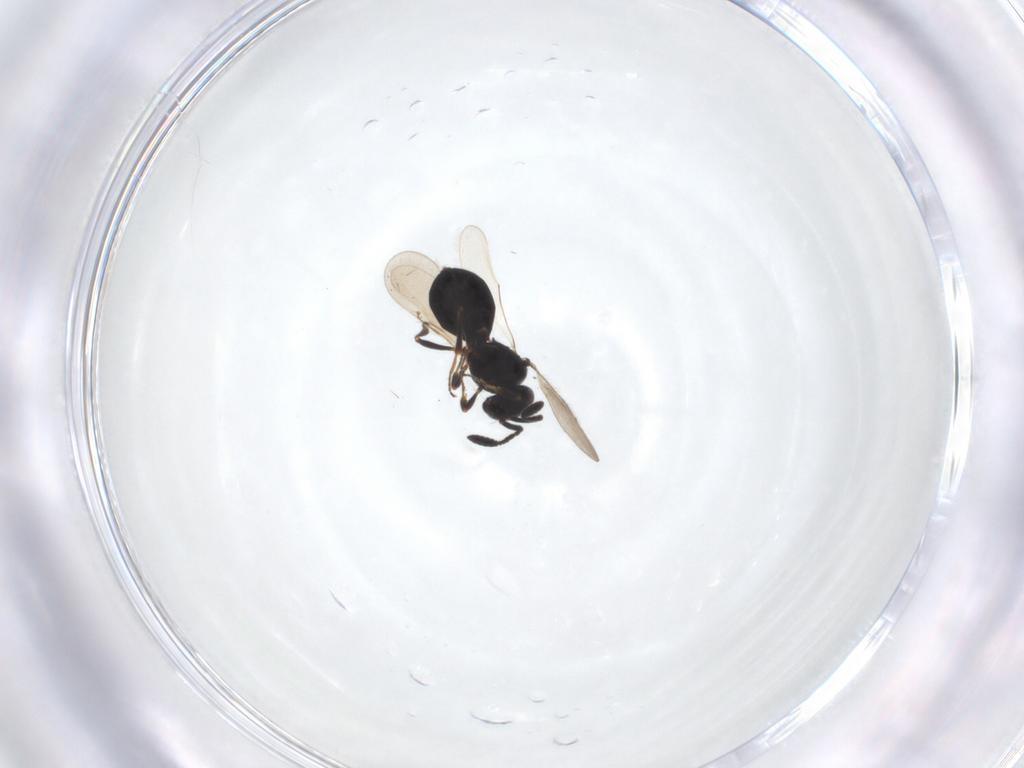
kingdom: Animalia
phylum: Arthropoda
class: Insecta
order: Hymenoptera
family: Scelionidae
